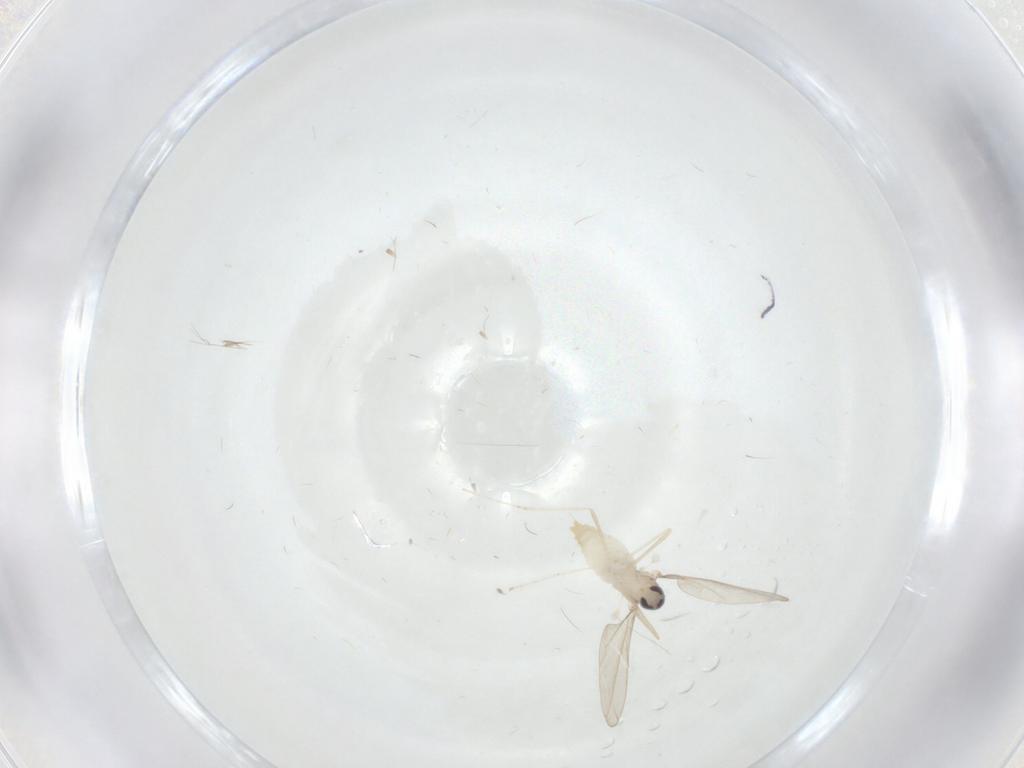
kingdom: Animalia
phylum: Arthropoda
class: Insecta
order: Diptera
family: Cecidomyiidae
